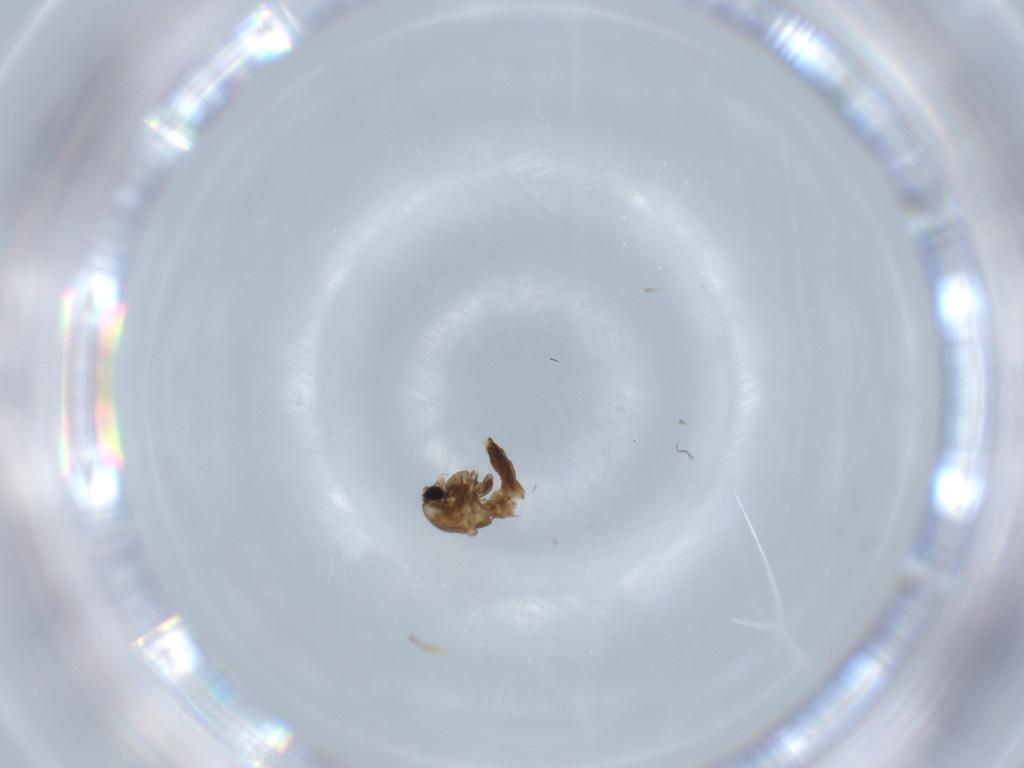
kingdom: Animalia
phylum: Arthropoda
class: Insecta
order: Diptera
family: Chironomidae
